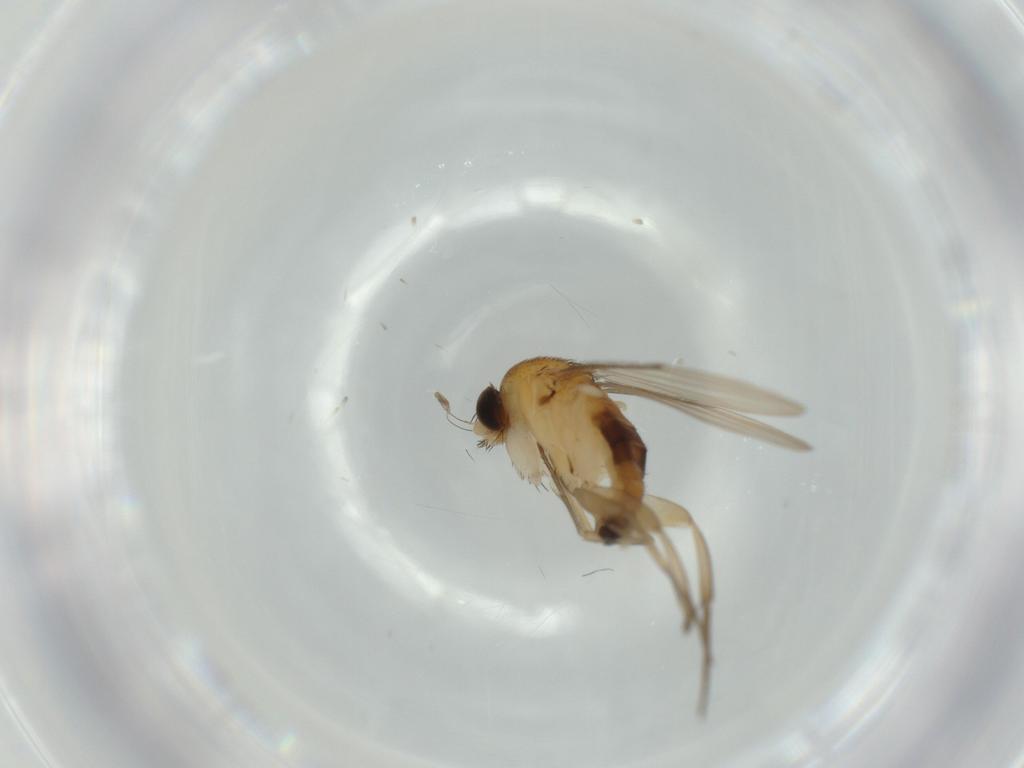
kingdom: Animalia
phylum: Arthropoda
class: Insecta
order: Diptera
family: Phoridae
